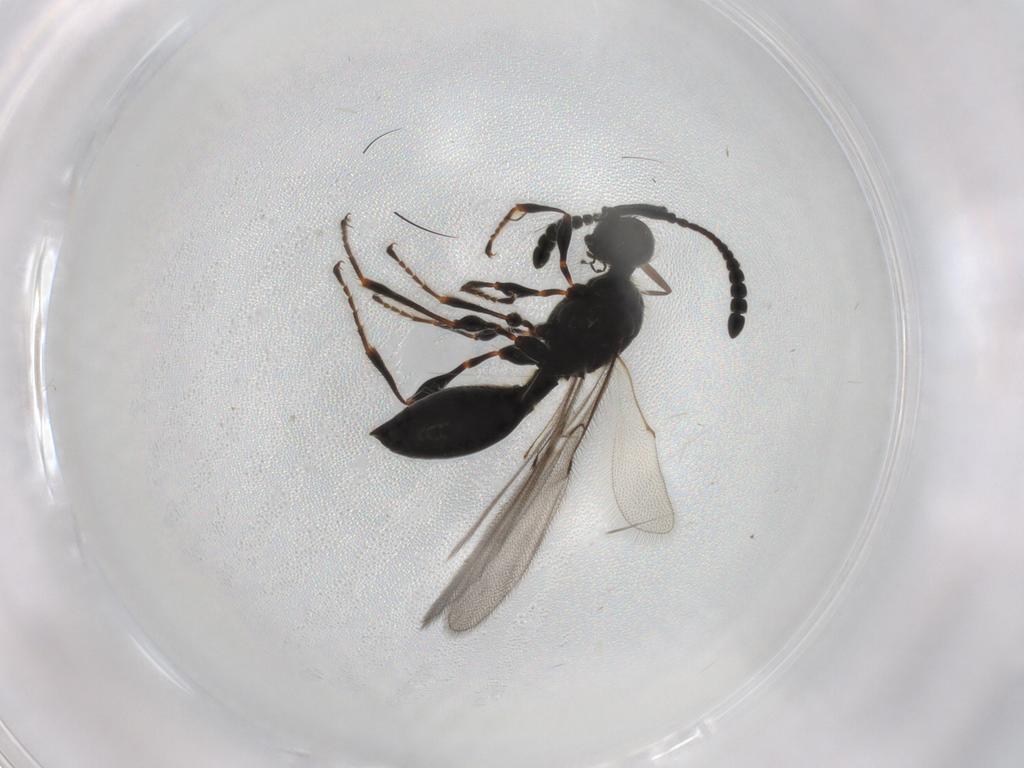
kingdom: Animalia
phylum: Arthropoda
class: Insecta
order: Hymenoptera
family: Diapriidae
